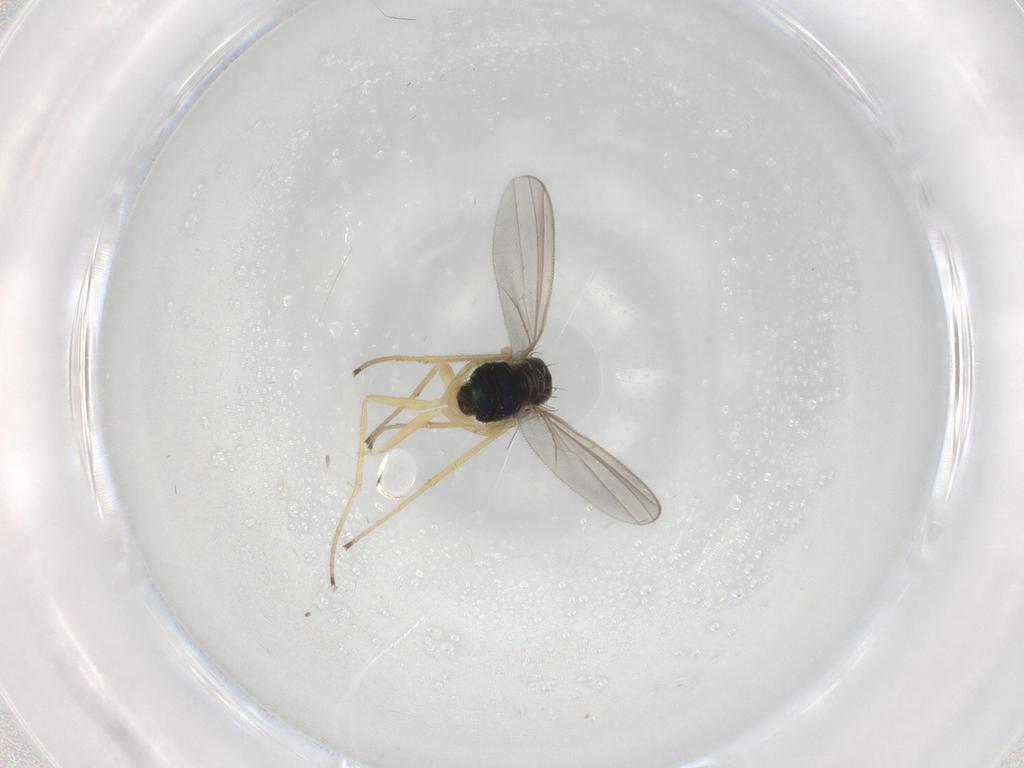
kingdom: Animalia
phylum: Arthropoda
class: Insecta
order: Diptera
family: Dolichopodidae
